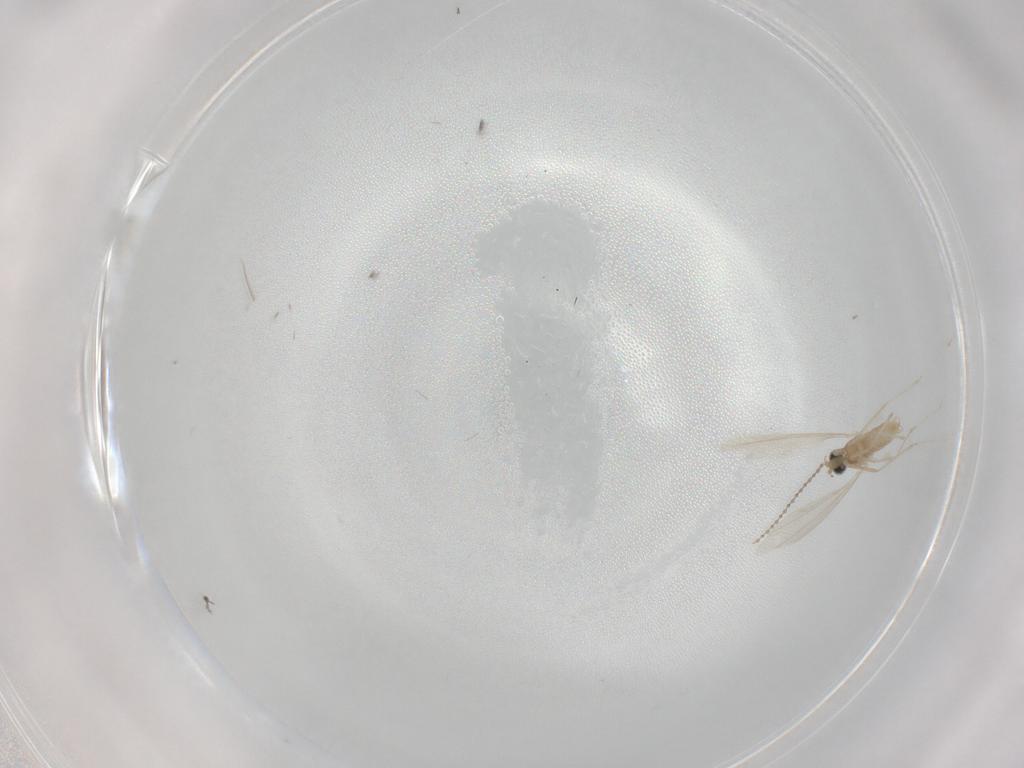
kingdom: Animalia
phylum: Arthropoda
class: Insecta
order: Diptera
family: Cecidomyiidae
